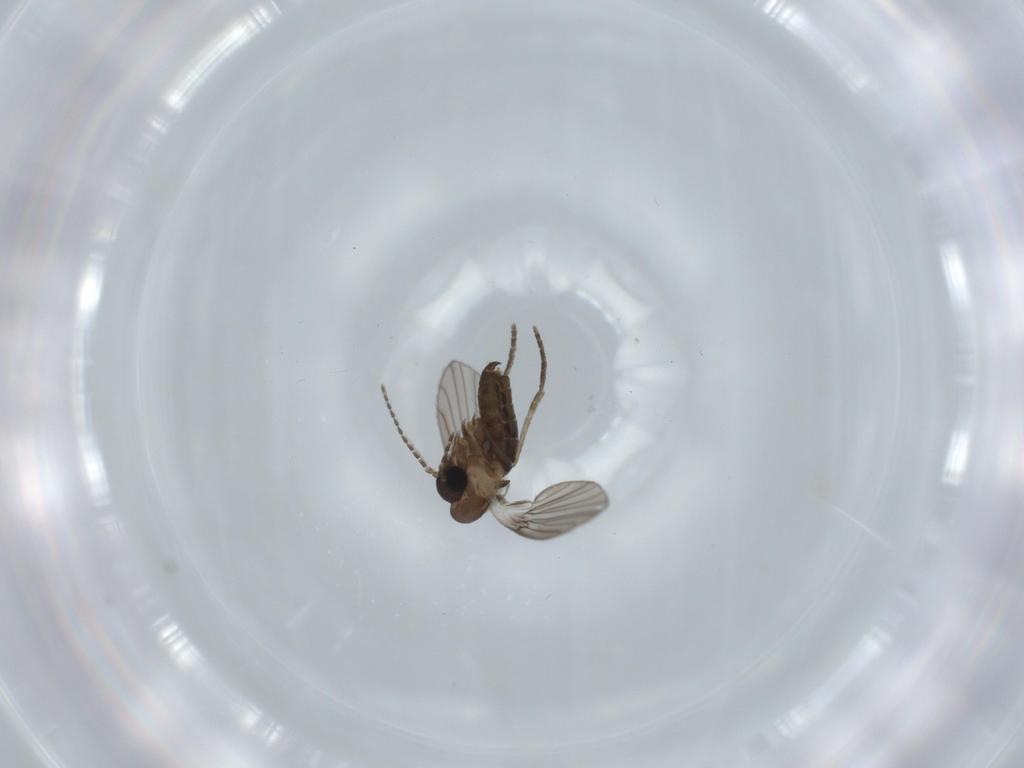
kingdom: Animalia
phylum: Arthropoda
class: Insecta
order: Diptera
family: Sciaridae
